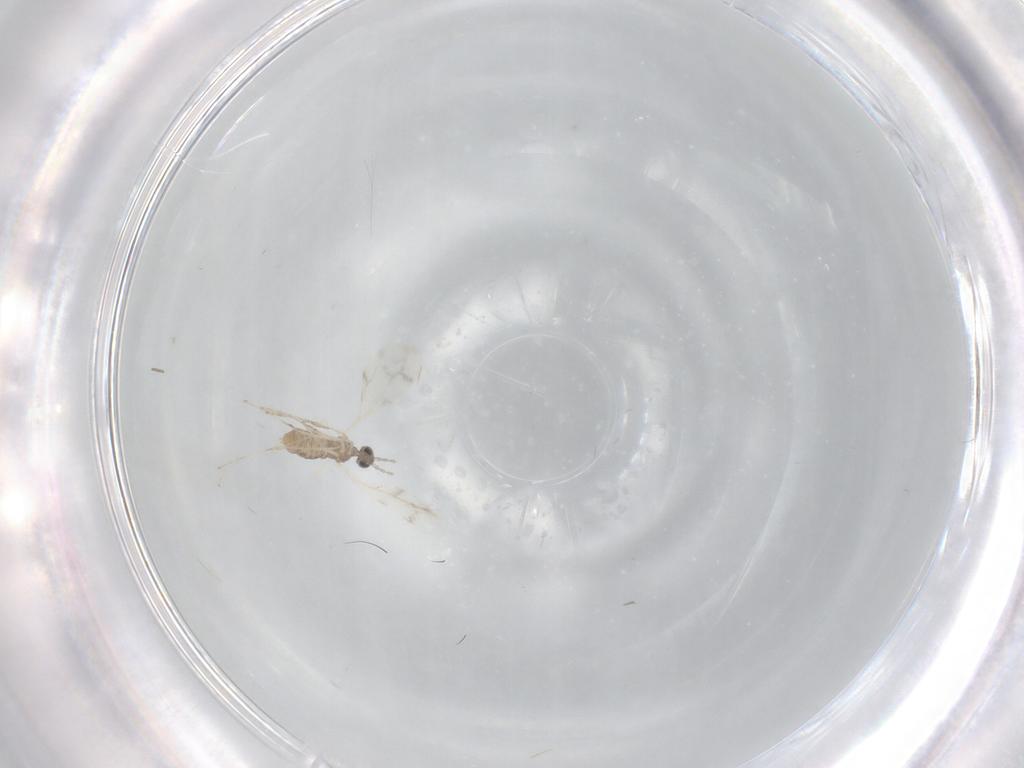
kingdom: Animalia
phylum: Arthropoda
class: Insecta
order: Diptera
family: Cecidomyiidae
